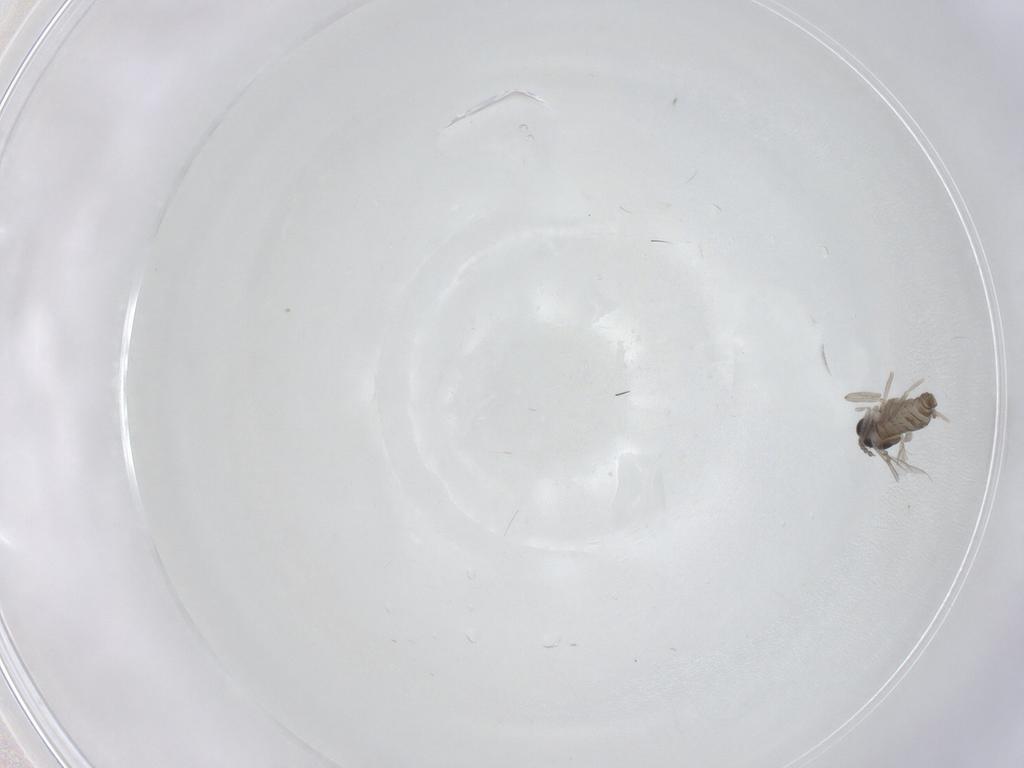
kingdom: Animalia
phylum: Arthropoda
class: Insecta
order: Diptera
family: Cecidomyiidae
